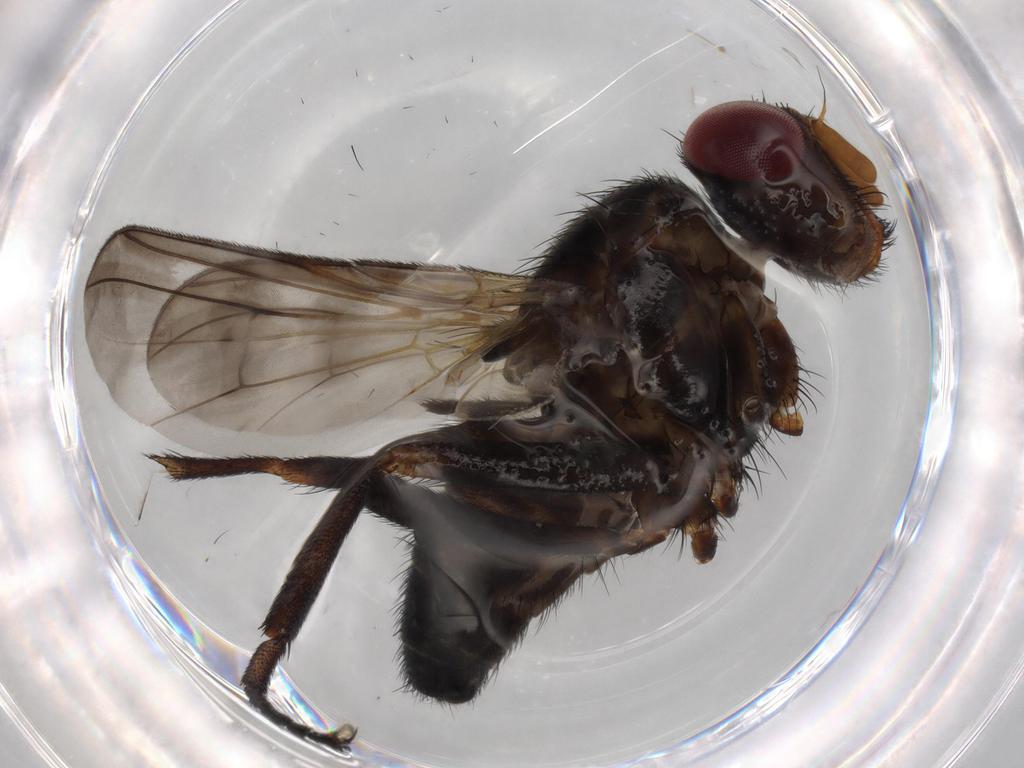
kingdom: Animalia
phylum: Arthropoda
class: Insecta
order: Diptera
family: Calliphoridae
